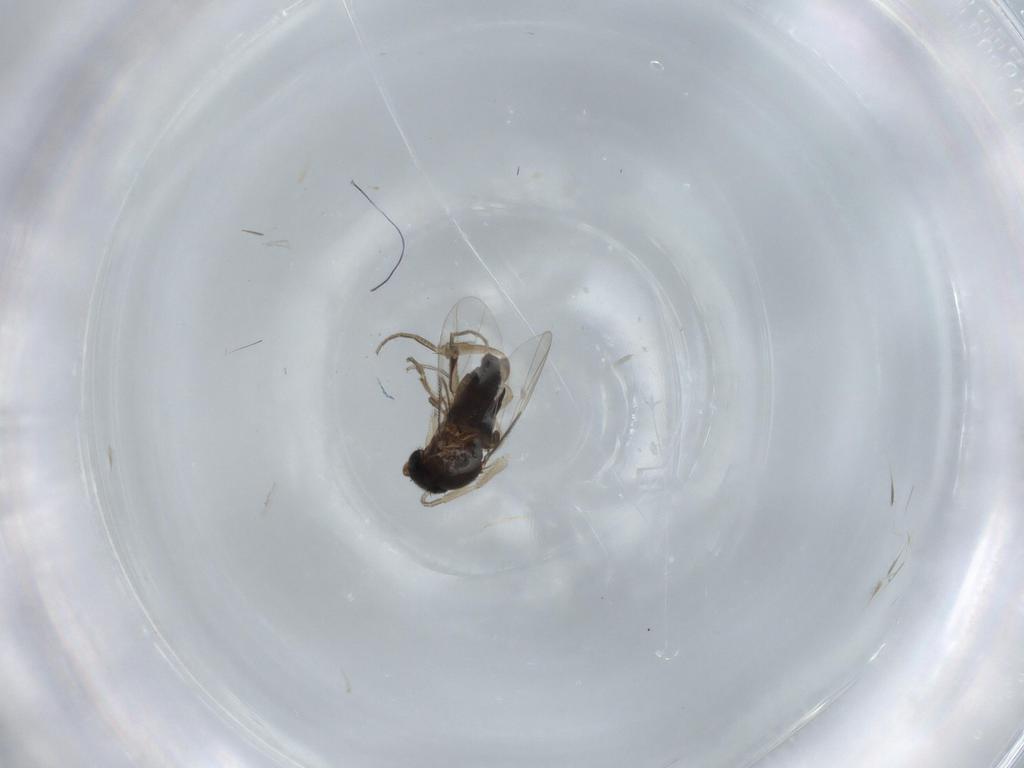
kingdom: Animalia
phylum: Arthropoda
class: Insecta
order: Diptera
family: Phoridae
